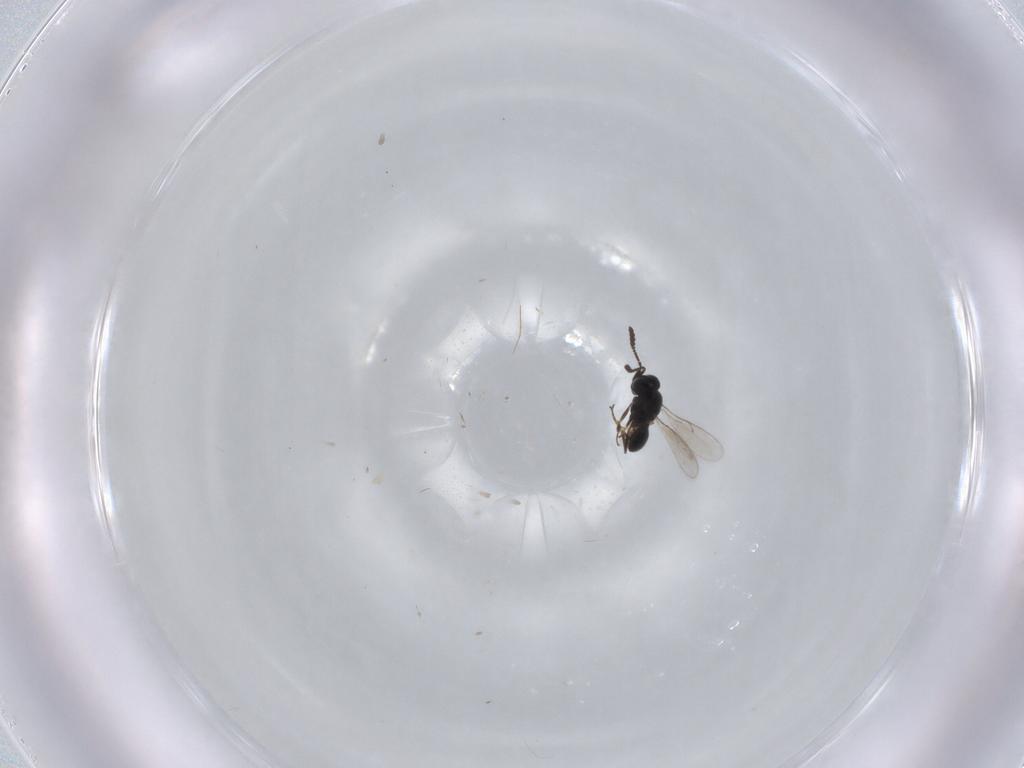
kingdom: Animalia
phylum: Arthropoda
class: Insecta
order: Hymenoptera
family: Scelionidae
